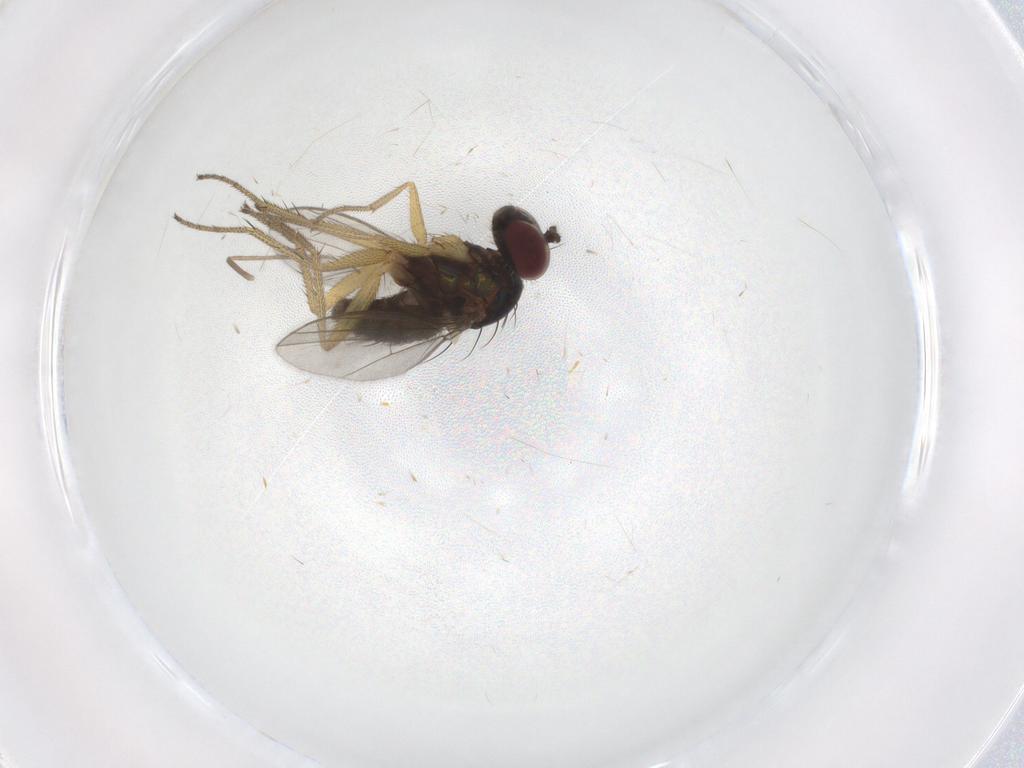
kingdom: Animalia
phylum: Arthropoda
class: Insecta
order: Diptera
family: Chironomidae
